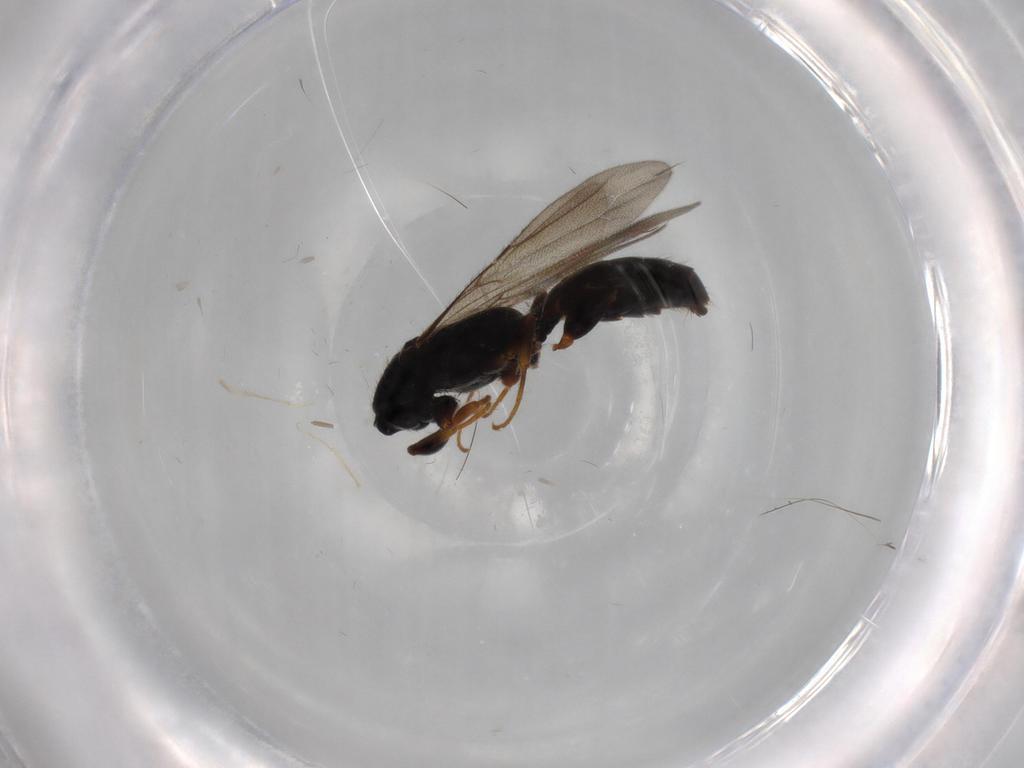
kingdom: Animalia
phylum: Arthropoda
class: Insecta
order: Hymenoptera
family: Bethylidae
